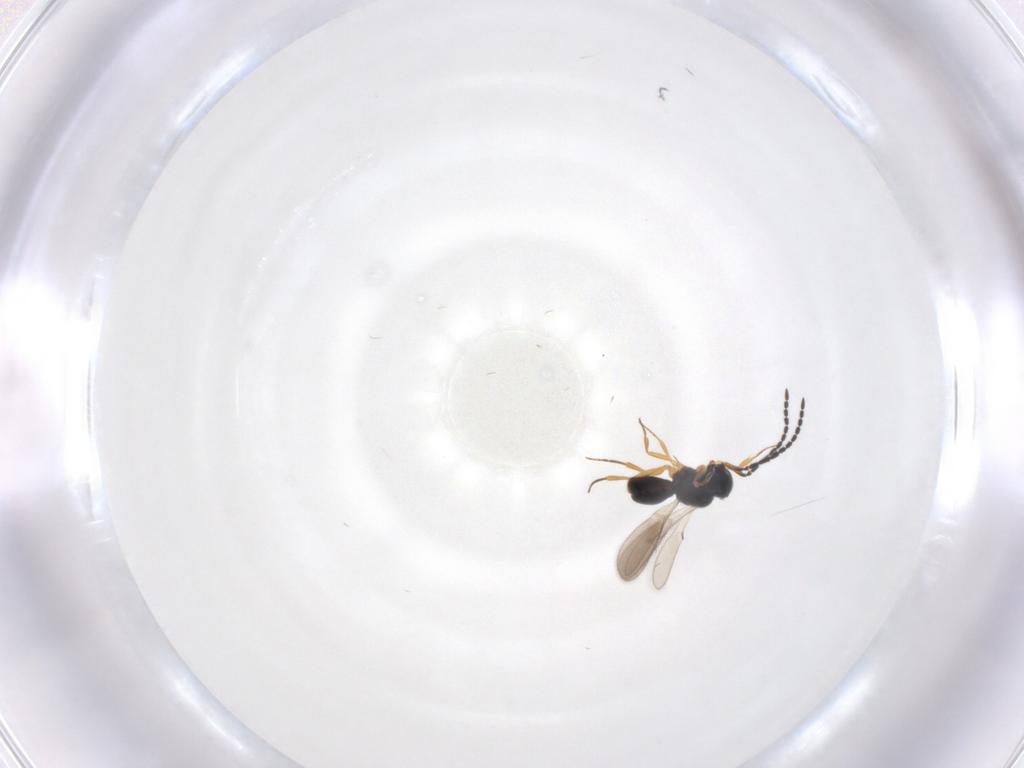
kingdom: Animalia
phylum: Arthropoda
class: Insecta
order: Hymenoptera
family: Scelionidae
